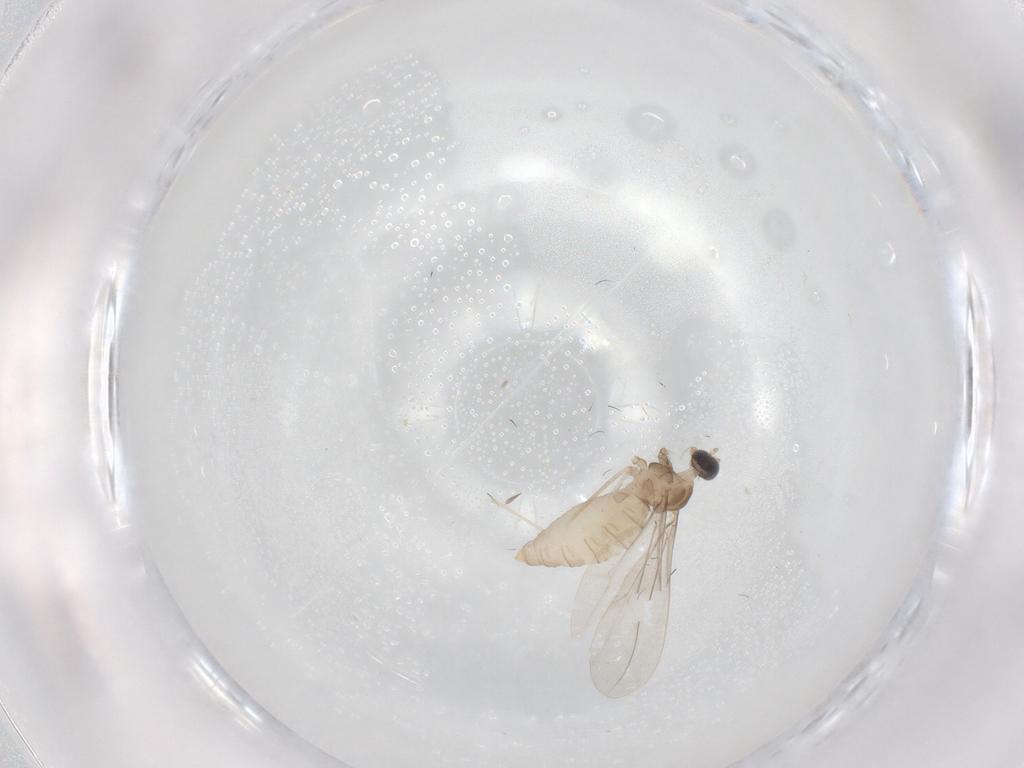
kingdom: Animalia
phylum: Arthropoda
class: Insecta
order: Diptera
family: Cecidomyiidae
